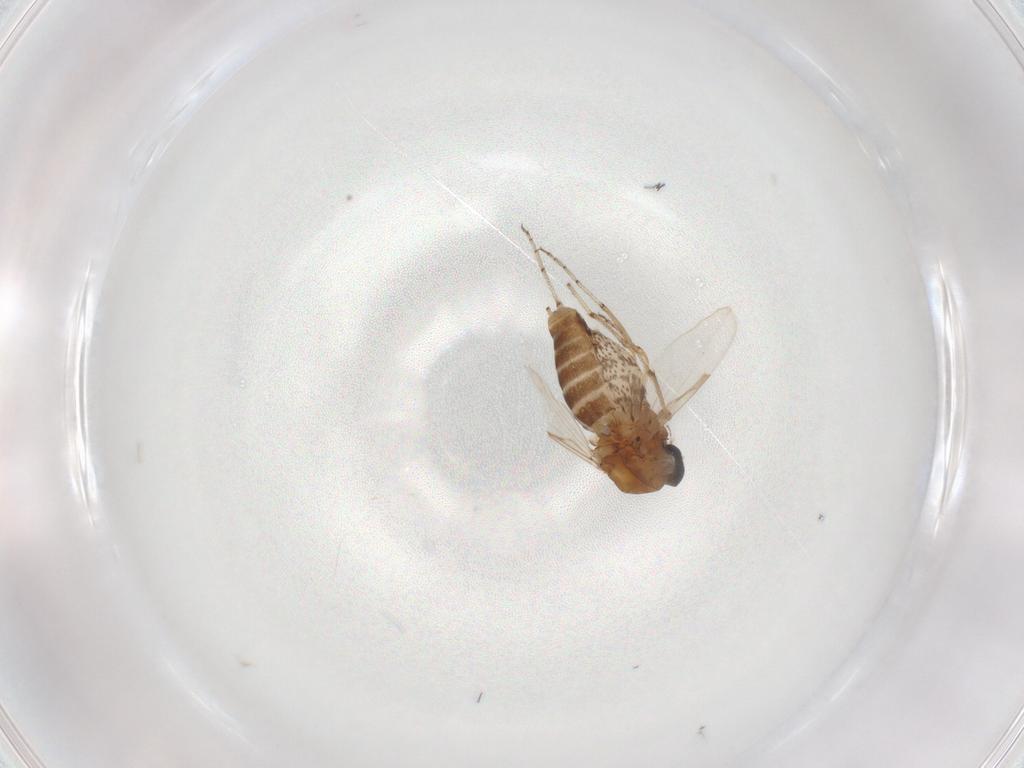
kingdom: Animalia
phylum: Arthropoda
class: Insecta
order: Diptera
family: Ceratopogonidae
